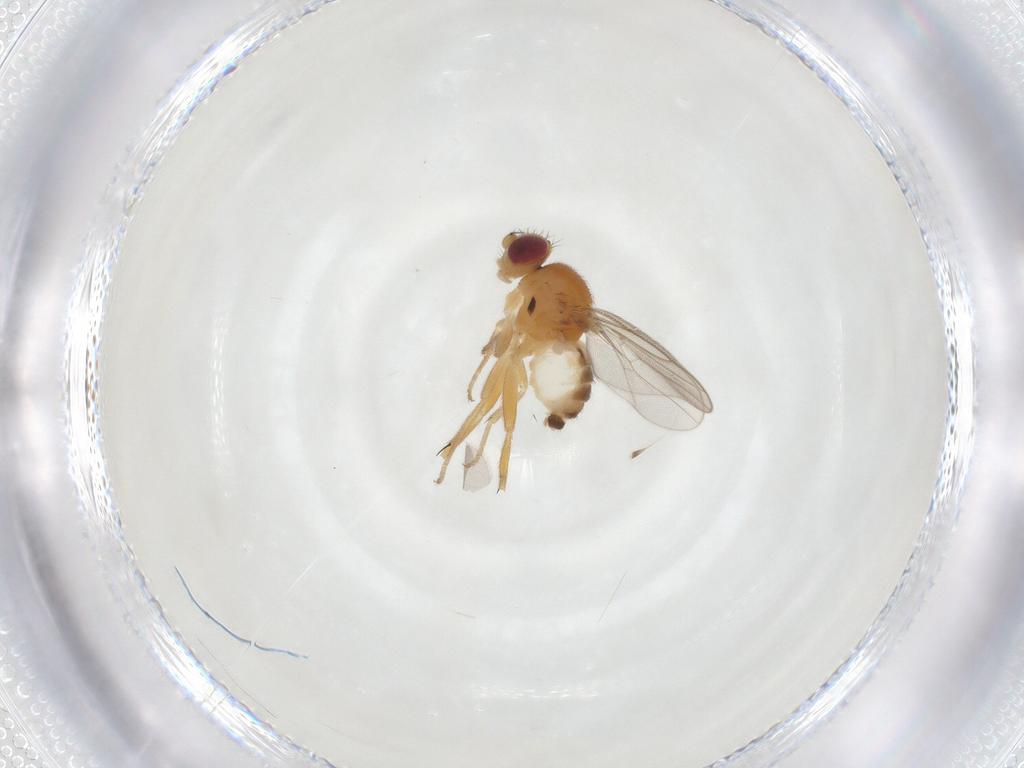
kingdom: Animalia
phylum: Arthropoda
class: Insecta
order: Diptera
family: Chloropidae
